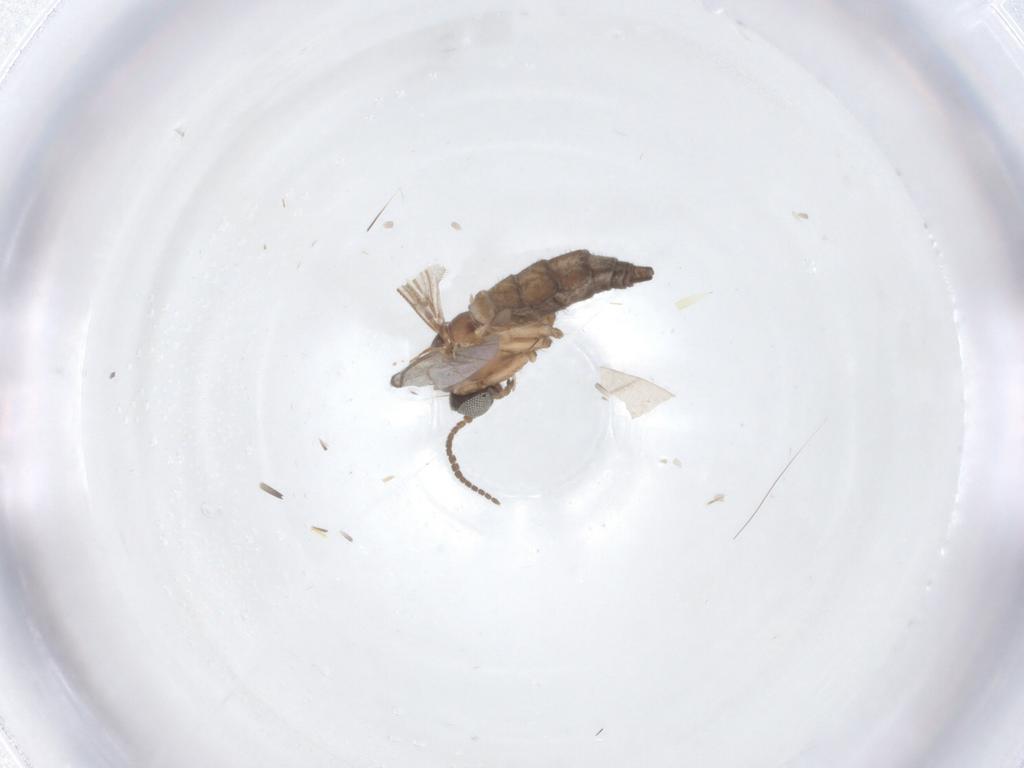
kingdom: Animalia
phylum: Arthropoda
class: Insecta
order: Diptera
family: Sciaridae
